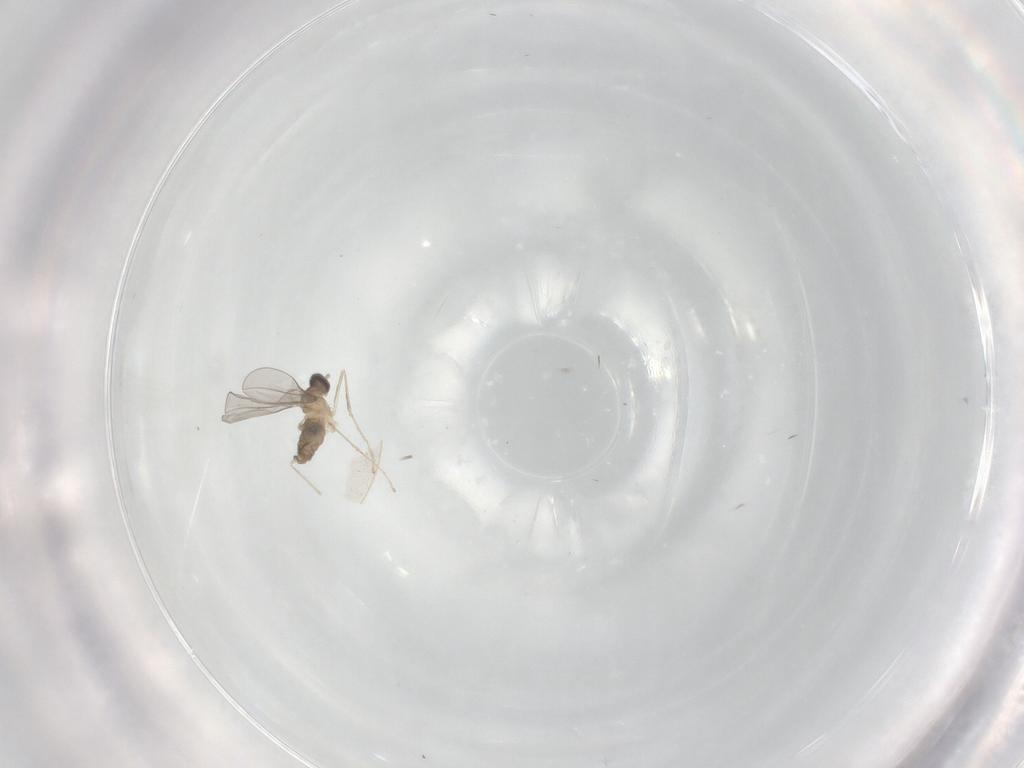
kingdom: Animalia
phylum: Arthropoda
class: Insecta
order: Diptera
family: Cecidomyiidae
